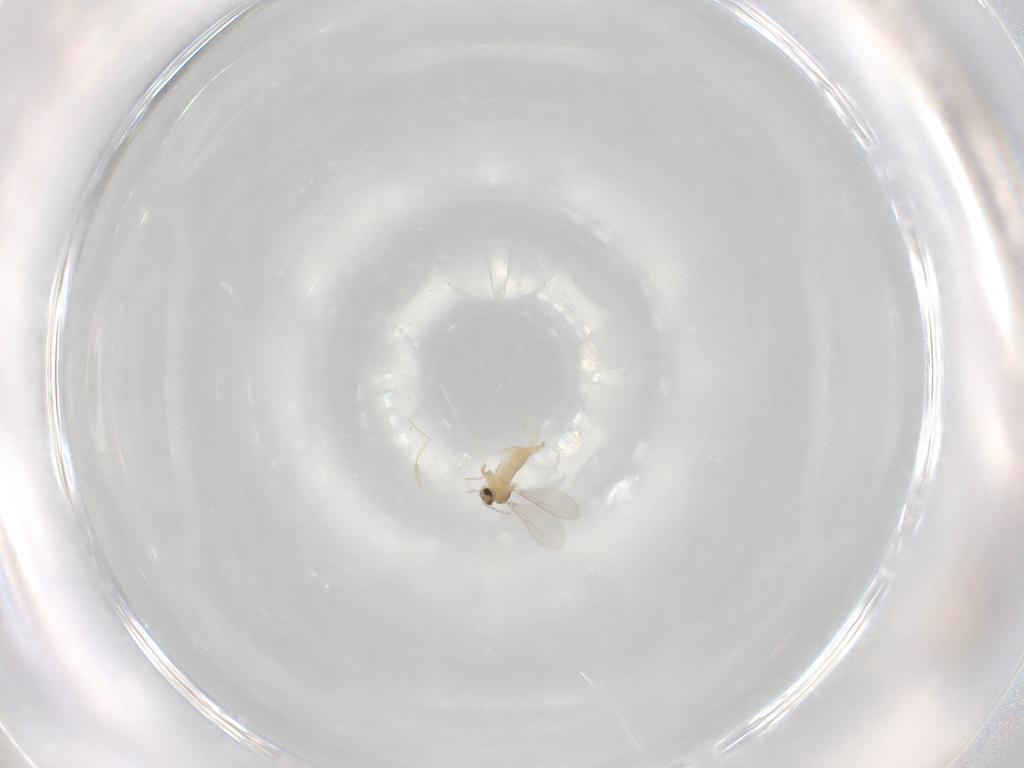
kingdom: Animalia
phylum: Arthropoda
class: Insecta
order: Diptera
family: Cecidomyiidae
